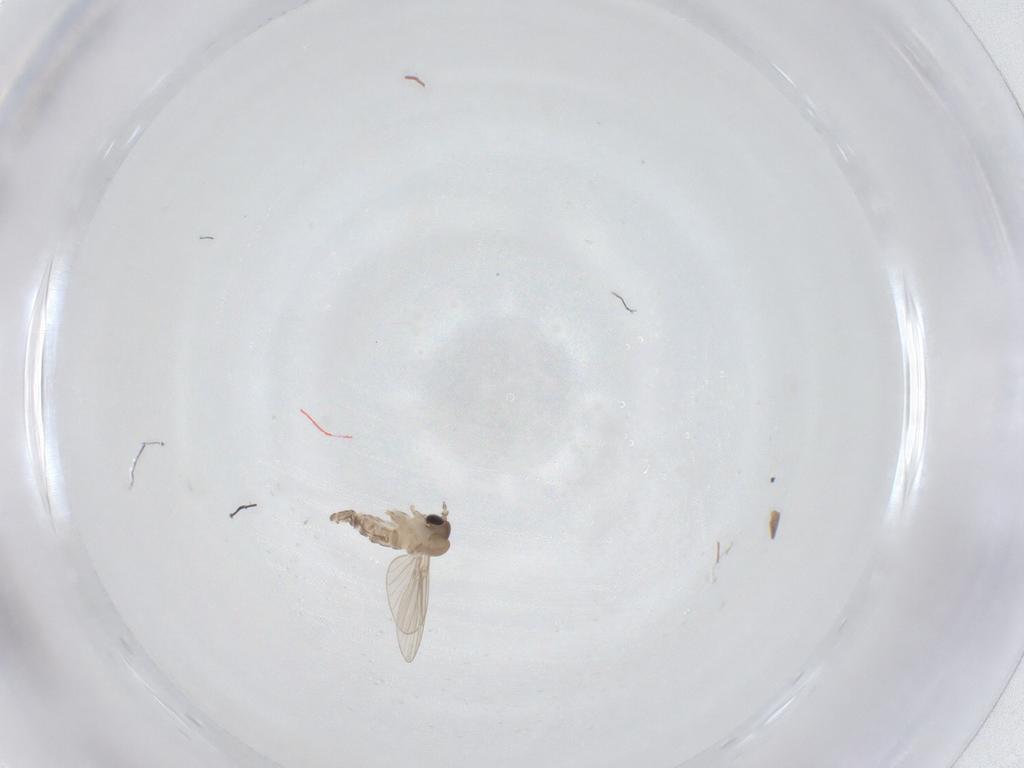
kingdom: Animalia
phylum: Arthropoda
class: Insecta
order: Diptera
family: Psychodidae
